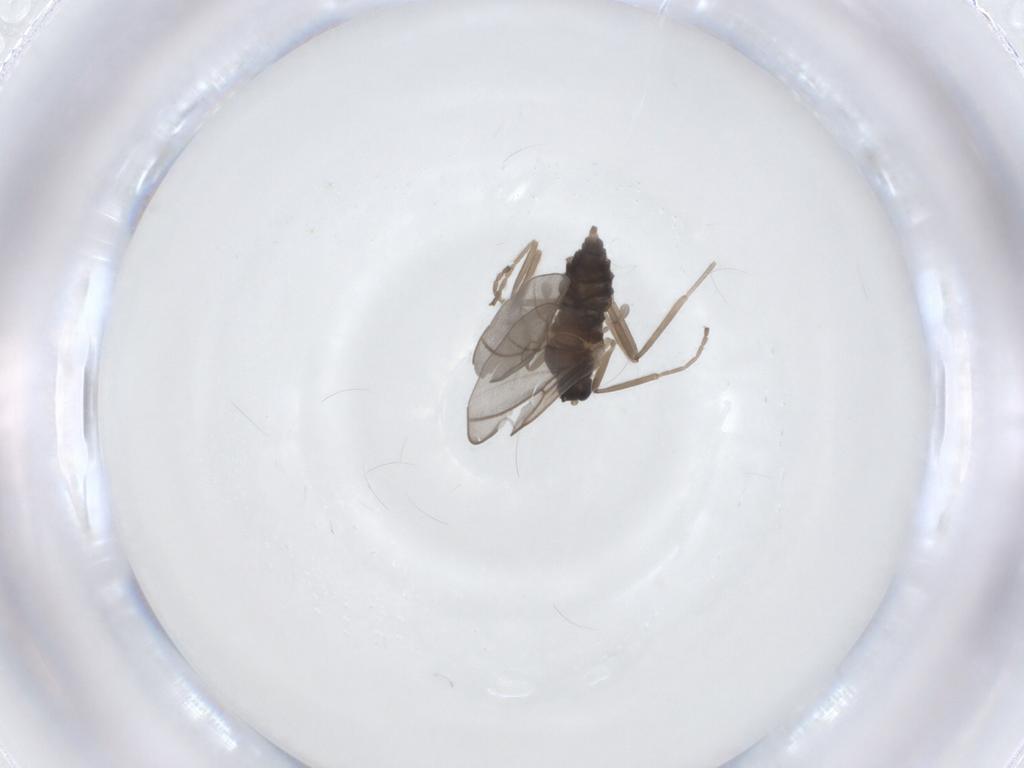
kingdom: Animalia
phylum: Arthropoda
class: Insecta
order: Diptera
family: Cecidomyiidae
